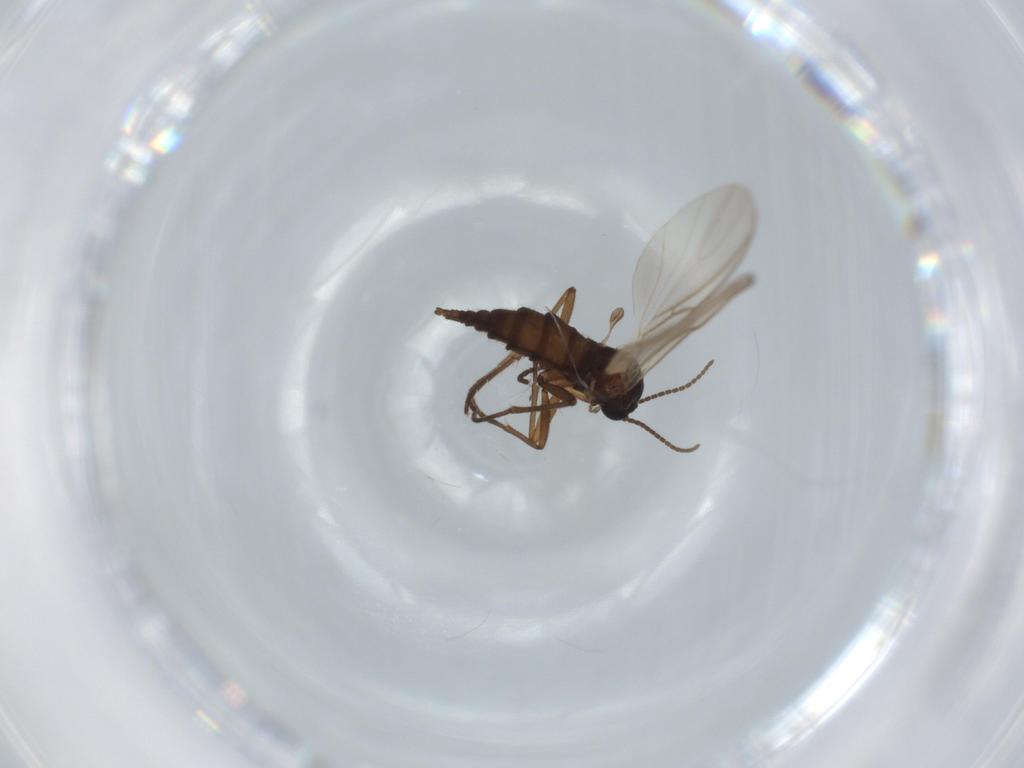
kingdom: Animalia
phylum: Arthropoda
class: Insecta
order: Diptera
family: Sciaridae
